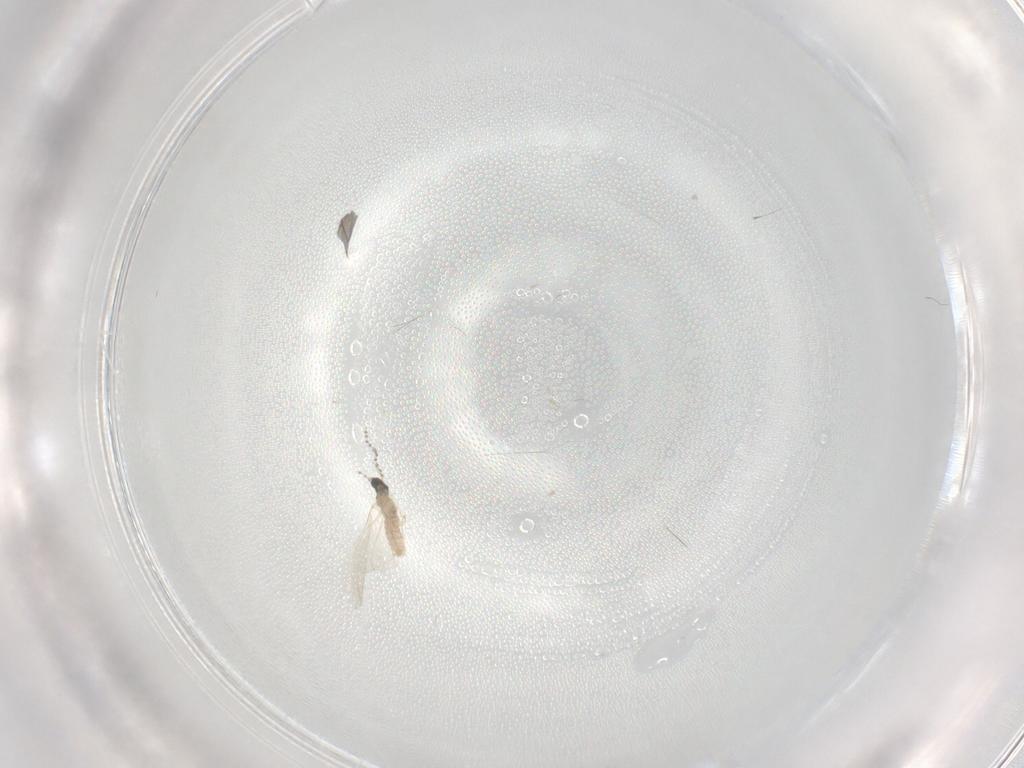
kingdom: Animalia
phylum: Arthropoda
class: Insecta
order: Diptera
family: Cecidomyiidae
